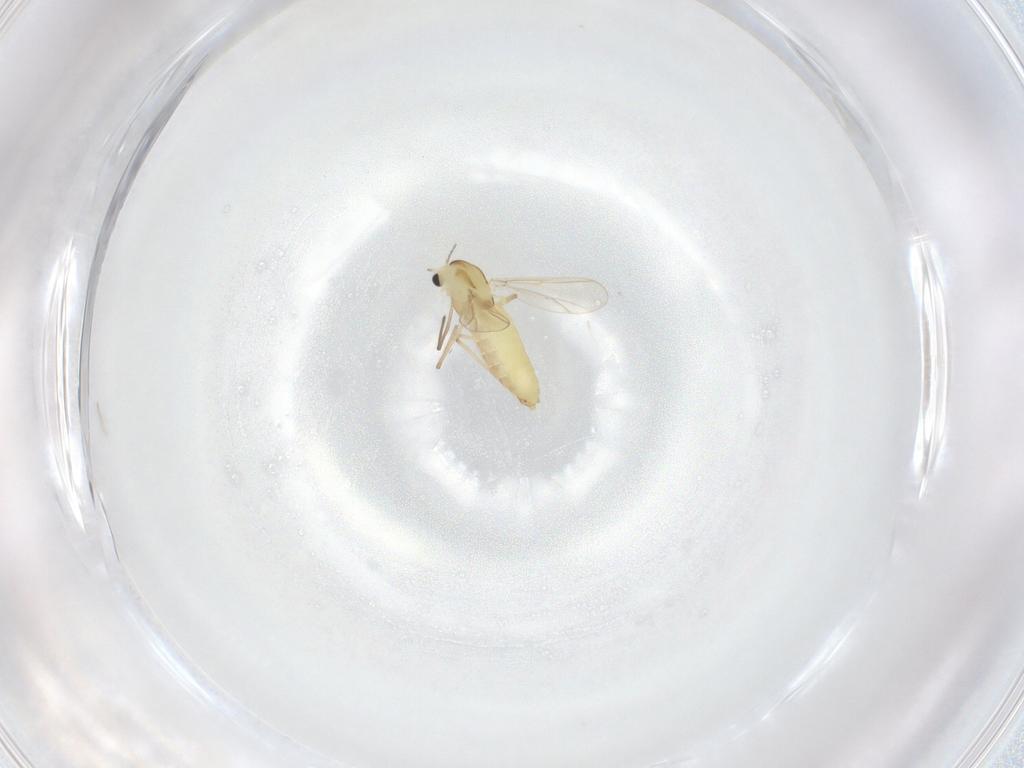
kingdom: Animalia
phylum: Arthropoda
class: Insecta
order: Diptera
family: Chironomidae
